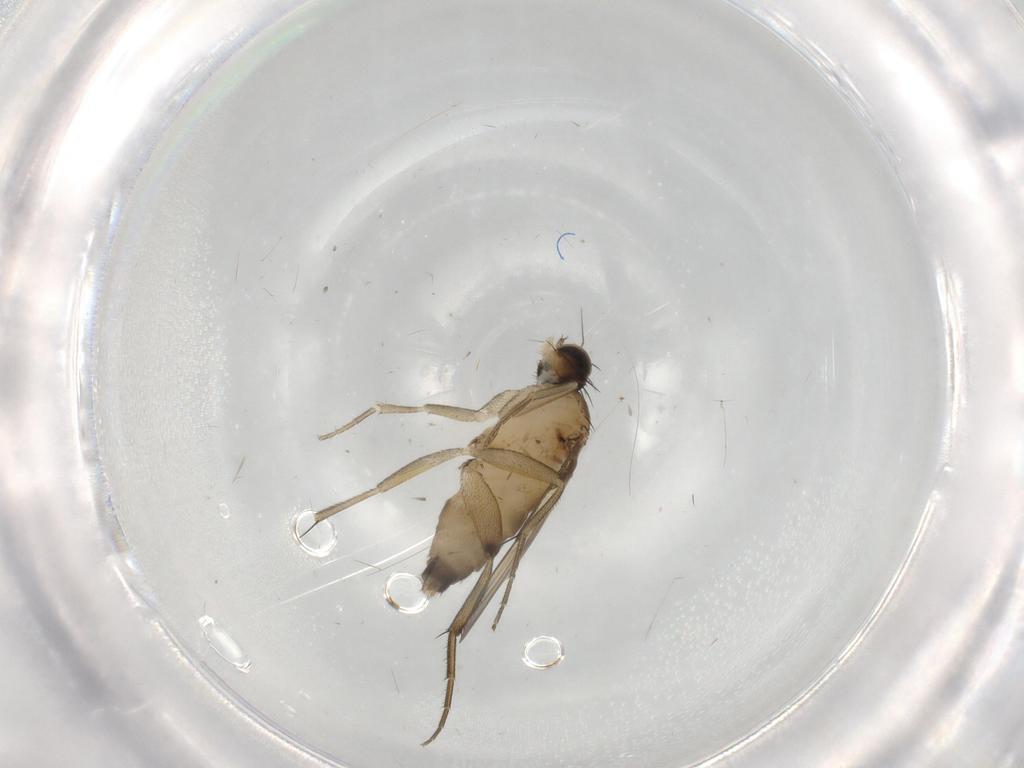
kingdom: Animalia
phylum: Arthropoda
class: Insecta
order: Diptera
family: Phoridae
